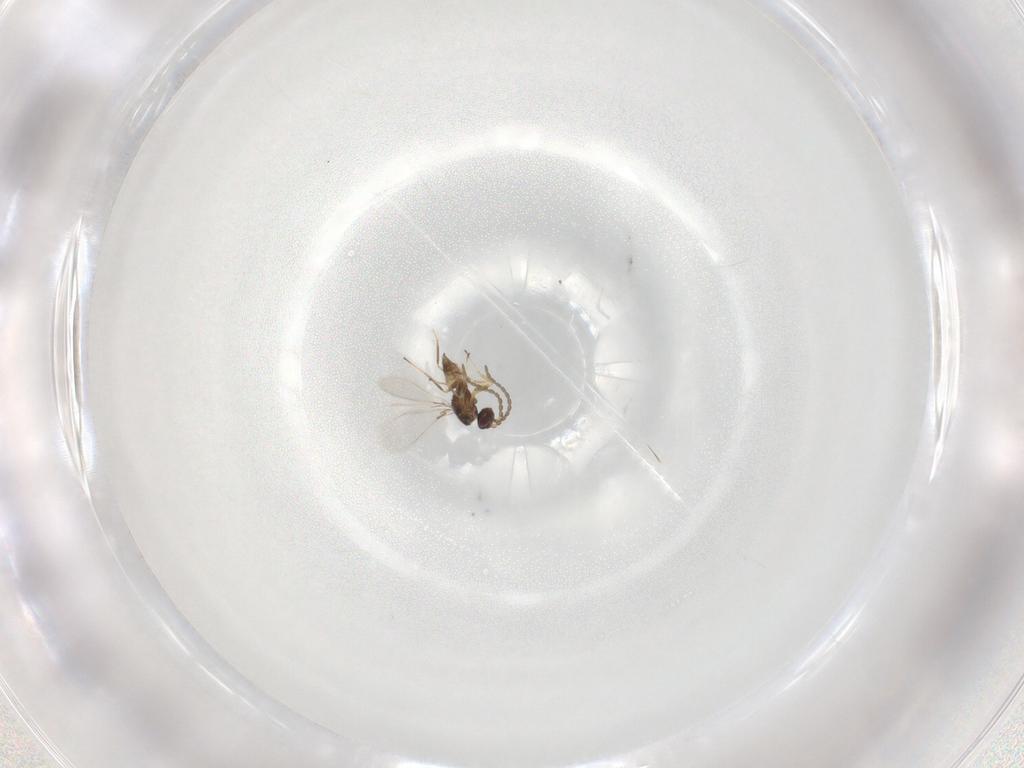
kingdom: Animalia
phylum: Arthropoda
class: Insecta
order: Hymenoptera
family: Mymaridae
